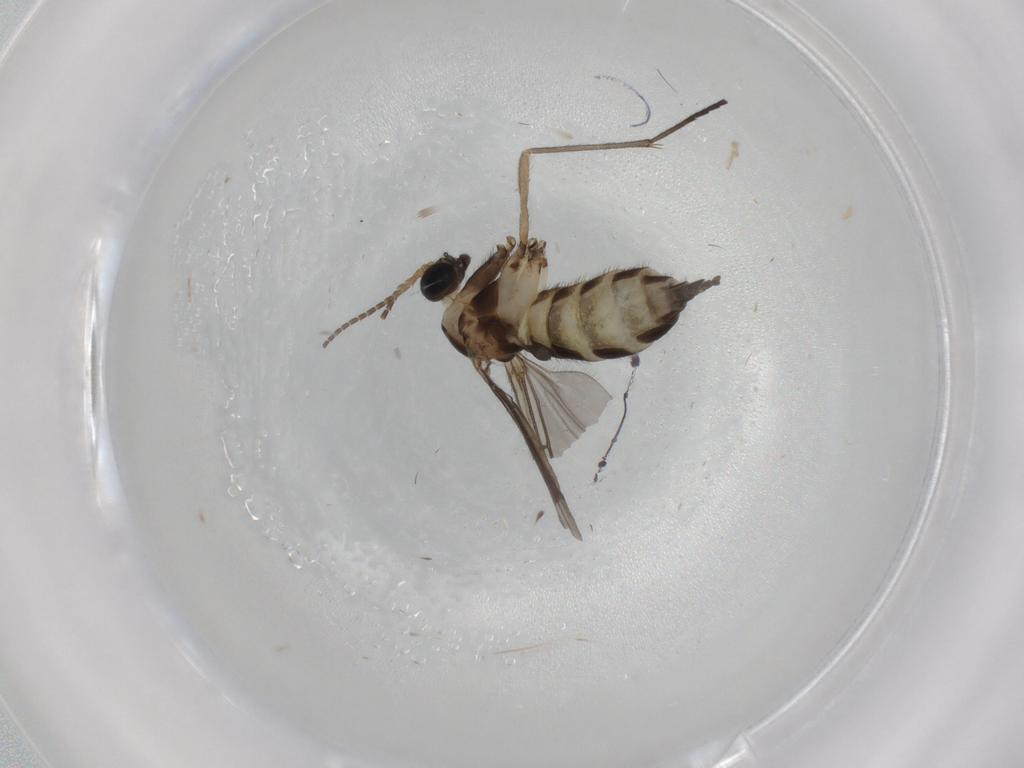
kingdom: Animalia
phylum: Arthropoda
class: Insecta
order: Diptera
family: Sciaridae
